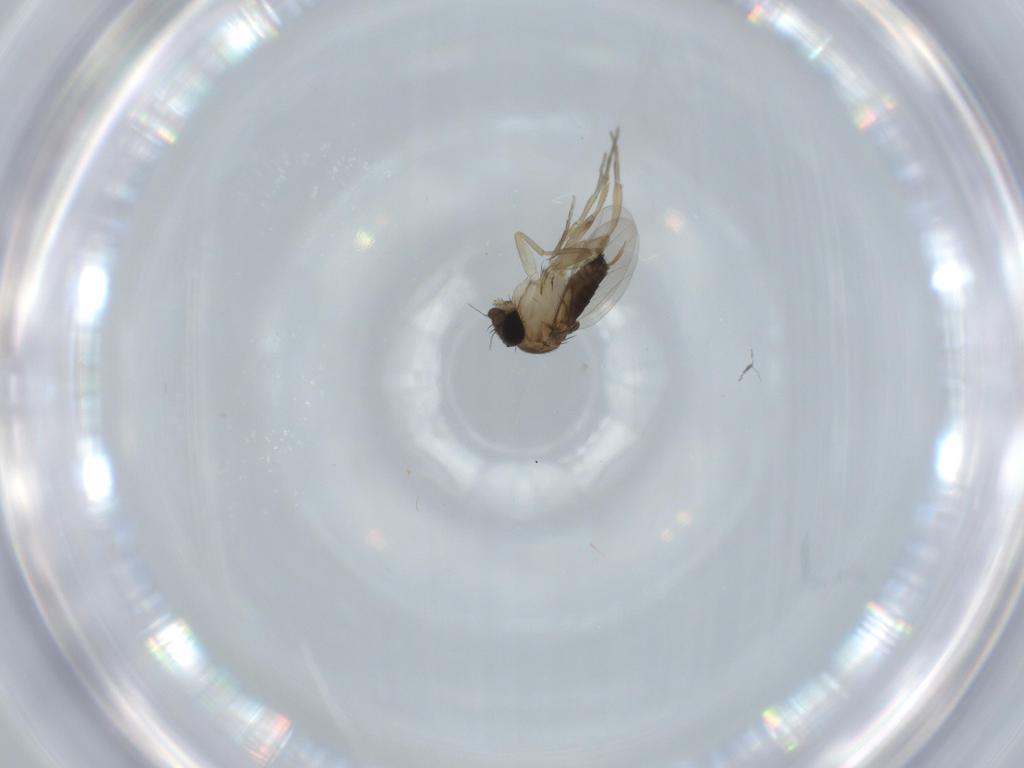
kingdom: Animalia
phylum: Arthropoda
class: Insecta
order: Diptera
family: Phoridae
